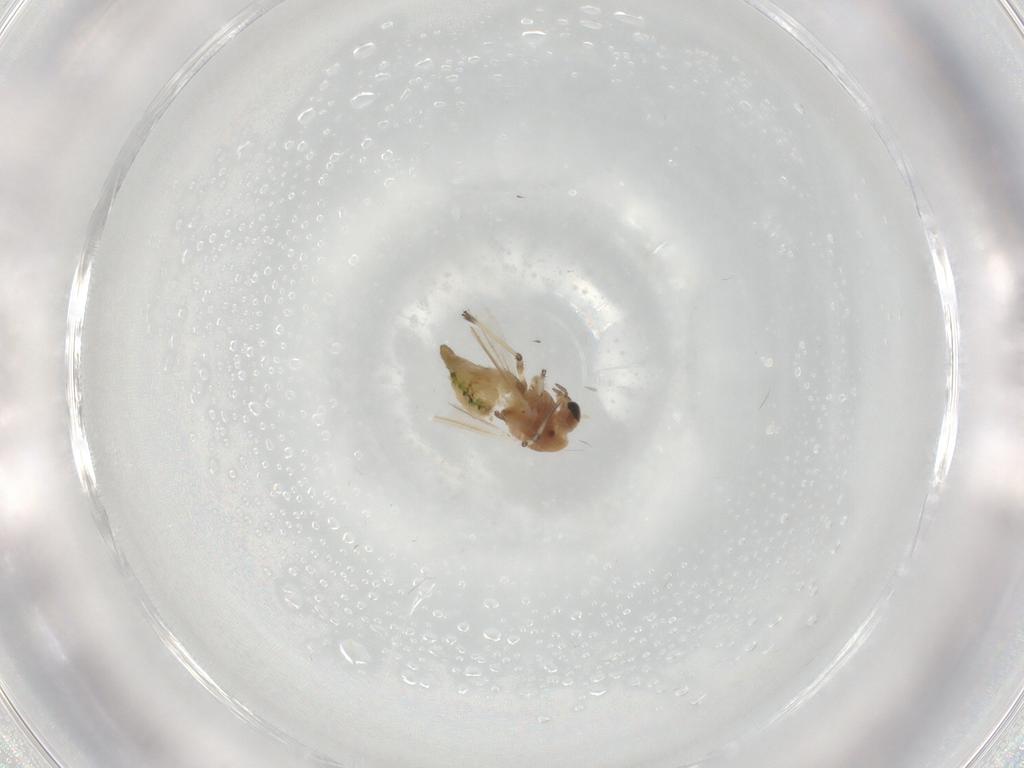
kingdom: Animalia
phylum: Arthropoda
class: Insecta
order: Diptera
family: Chironomidae
